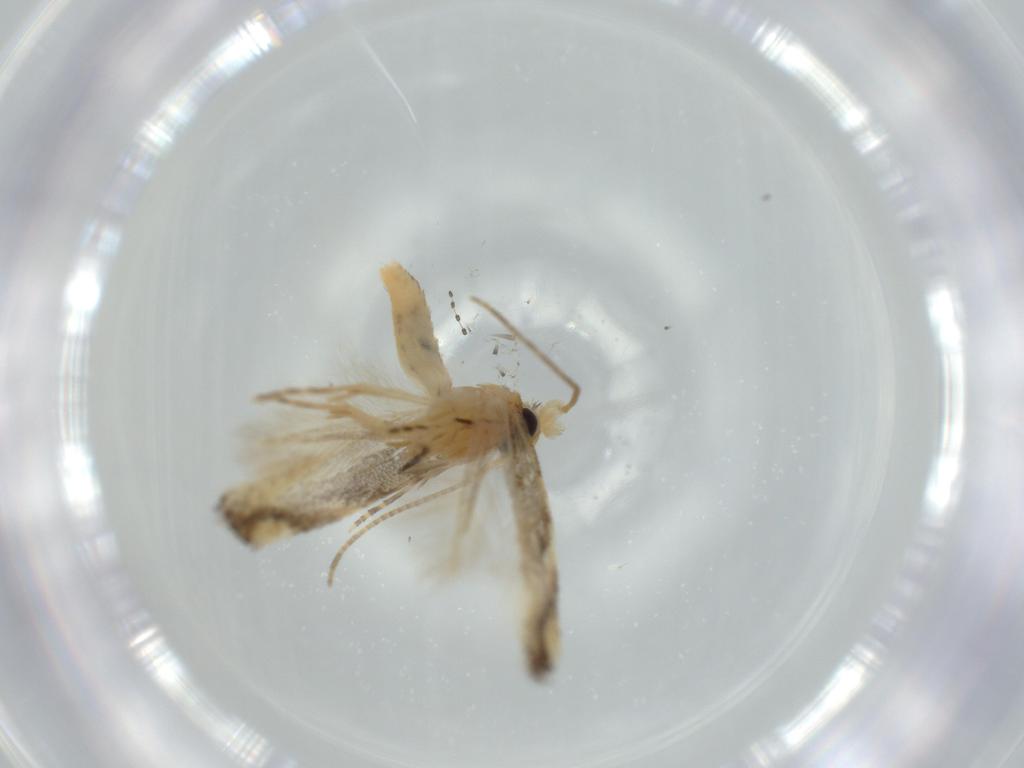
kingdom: Animalia
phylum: Arthropoda
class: Insecta
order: Lepidoptera
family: Bucculatricidae
